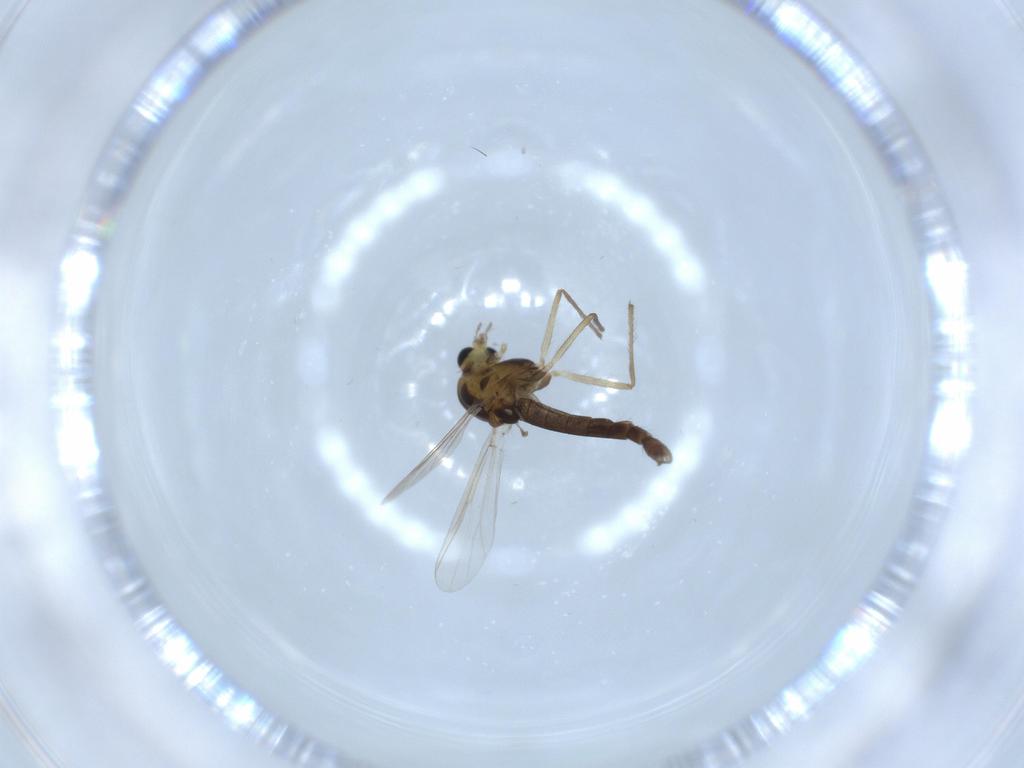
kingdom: Animalia
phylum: Arthropoda
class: Insecta
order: Diptera
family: Chironomidae
